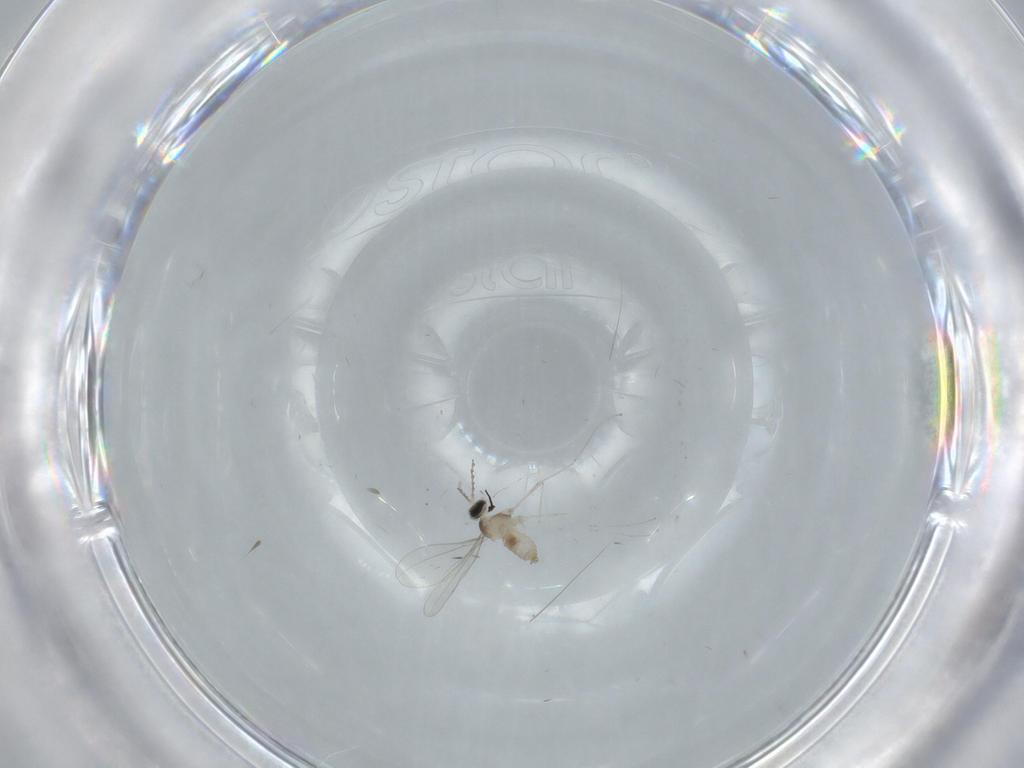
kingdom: Animalia
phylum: Arthropoda
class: Insecta
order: Diptera
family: Cecidomyiidae
